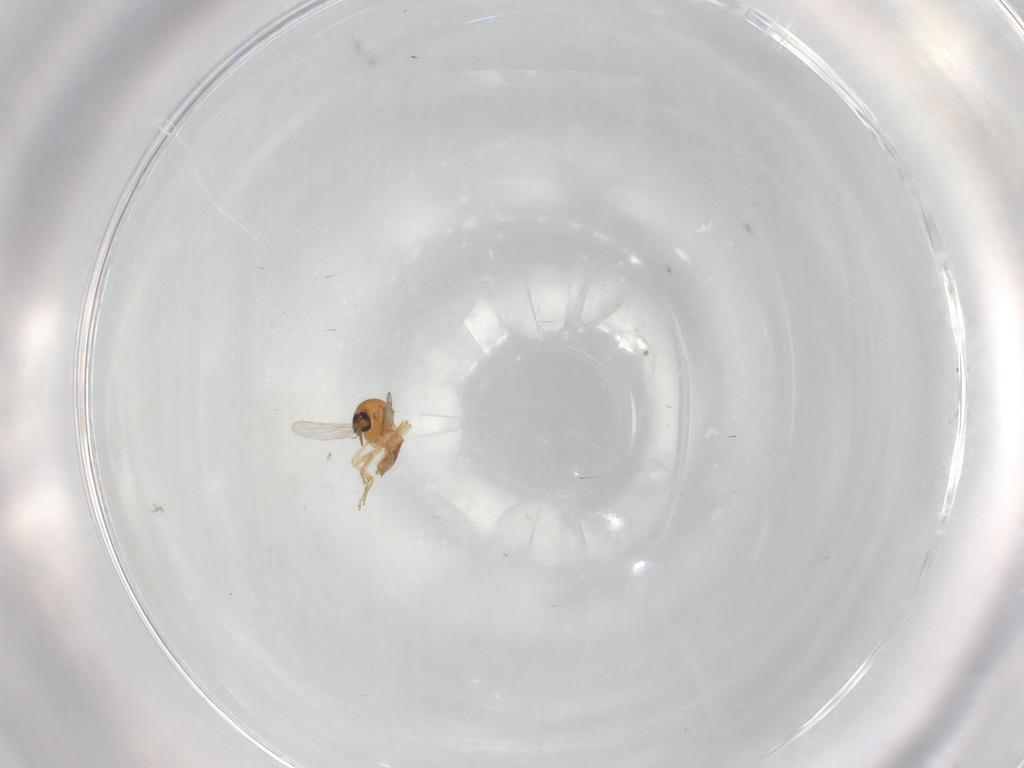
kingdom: Animalia
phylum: Arthropoda
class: Insecta
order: Diptera
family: Ceratopogonidae
